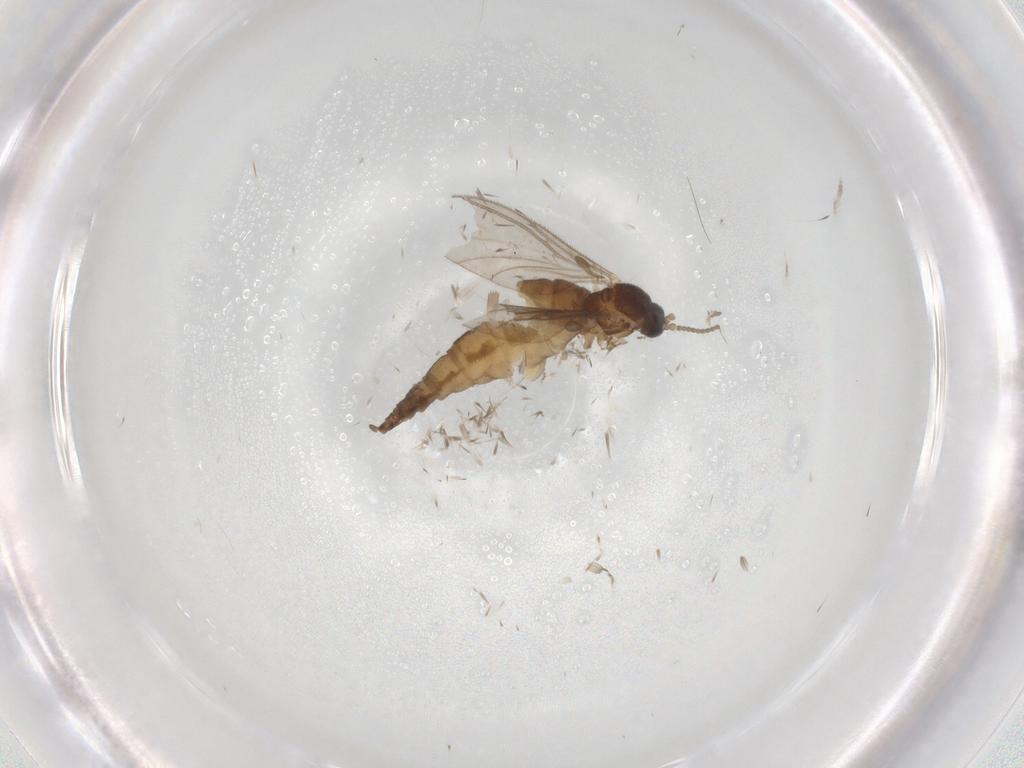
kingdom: Animalia
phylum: Arthropoda
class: Insecta
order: Diptera
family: Sciaridae
